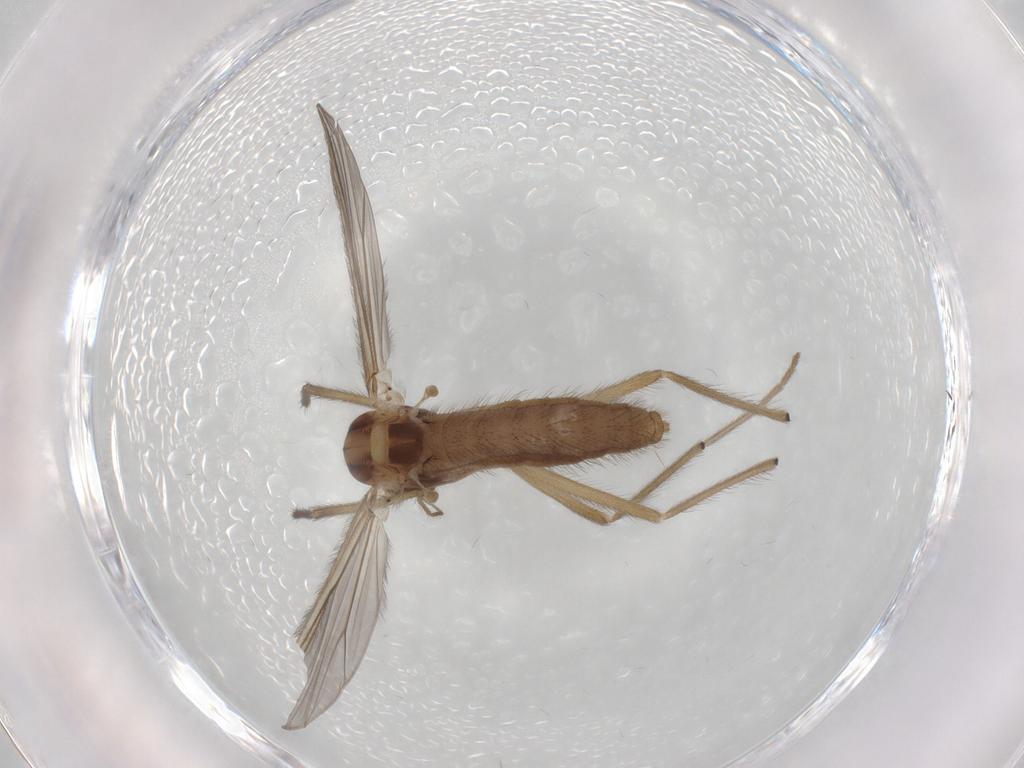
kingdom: Animalia
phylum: Arthropoda
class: Insecta
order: Diptera
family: Chironomidae
